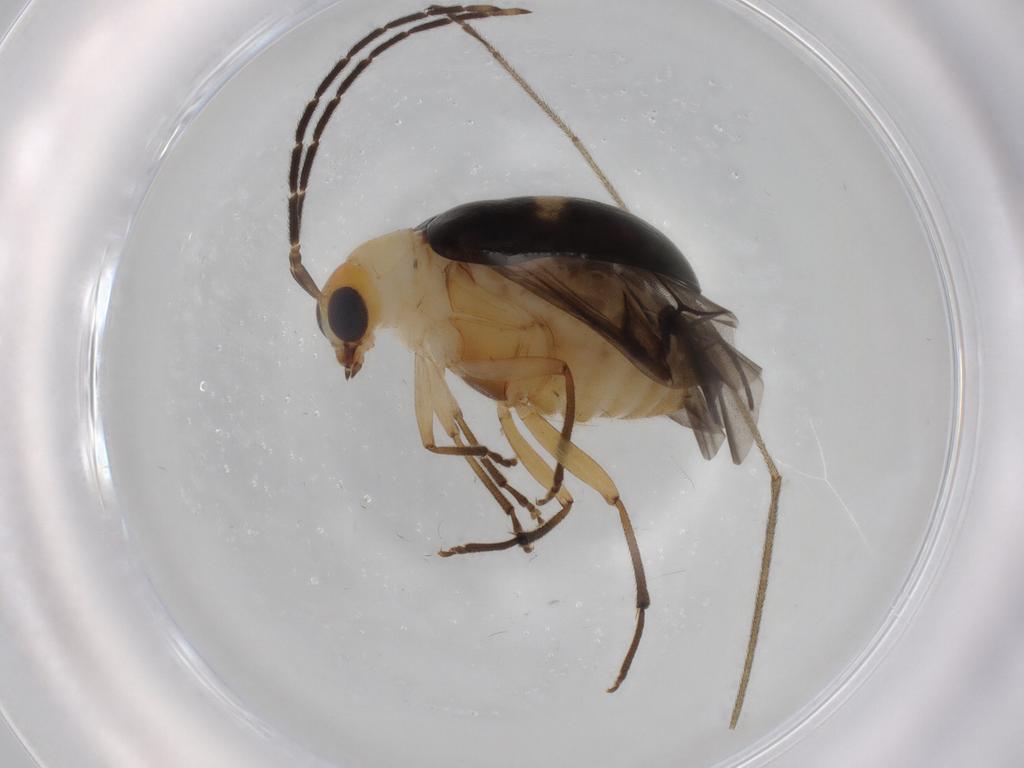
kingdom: Animalia
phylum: Arthropoda
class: Insecta
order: Coleoptera
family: Chrysomelidae
